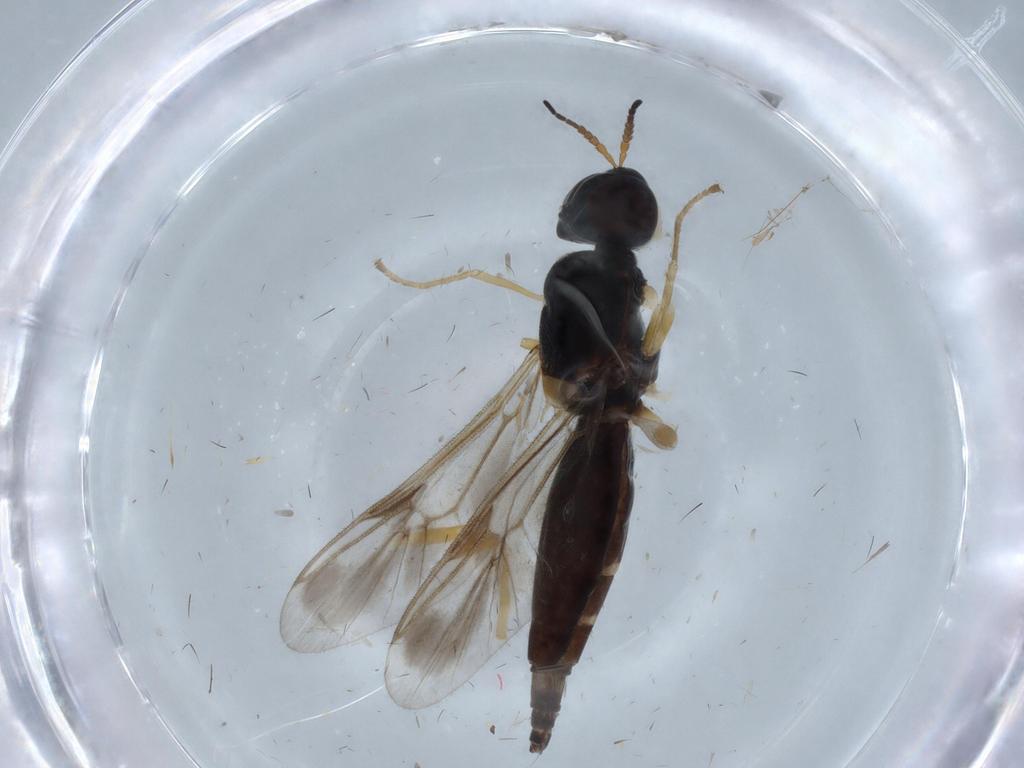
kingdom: Animalia
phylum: Arthropoda
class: Insecta
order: Diptera
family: Stratiomyidae
